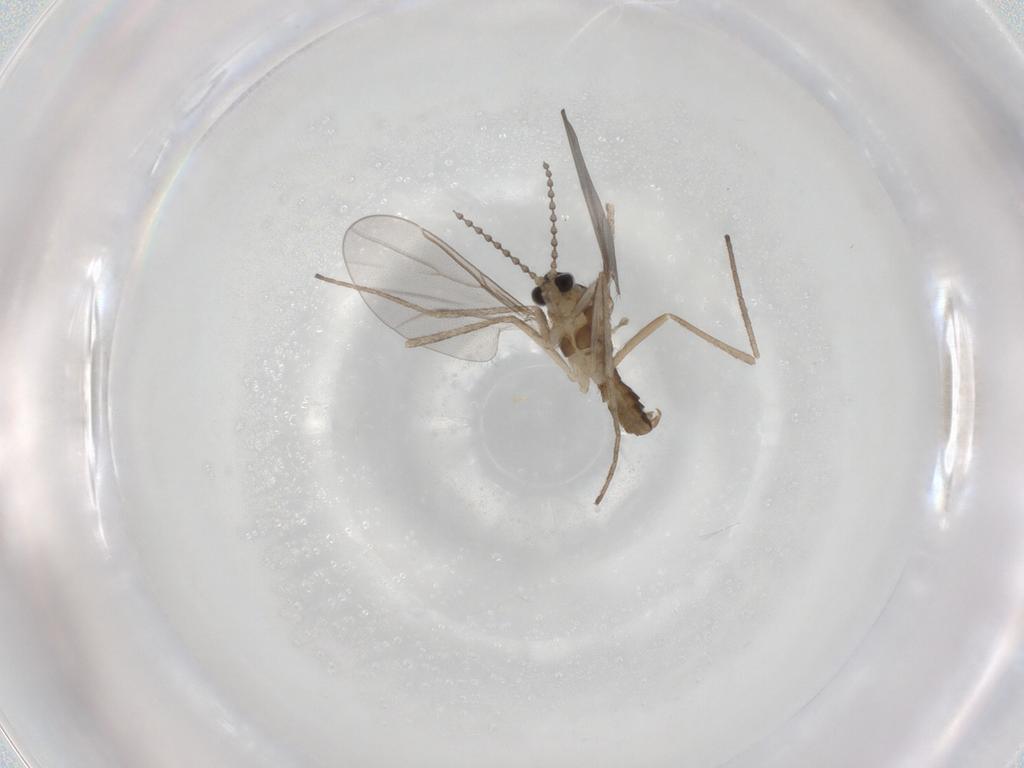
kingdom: Animalia
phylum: Arthropoda
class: Insecta
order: Diptera
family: Cecidomyiidae
